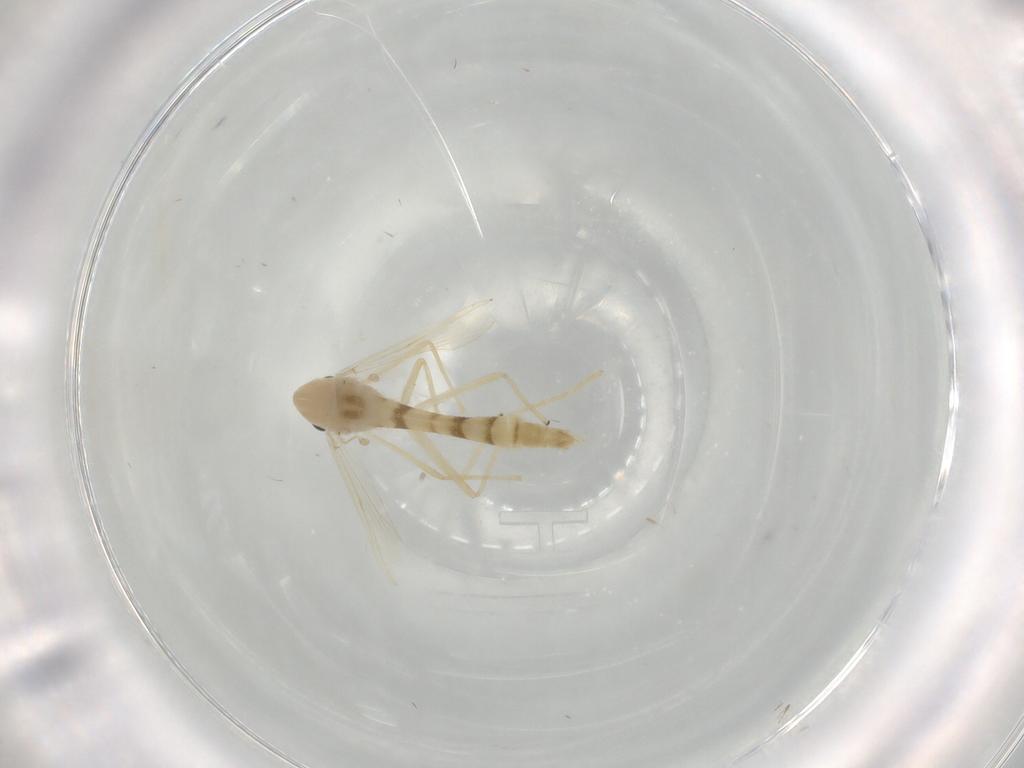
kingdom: Animalia
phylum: Arthropoda
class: Insecta
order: Diptera
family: Chironomidae
